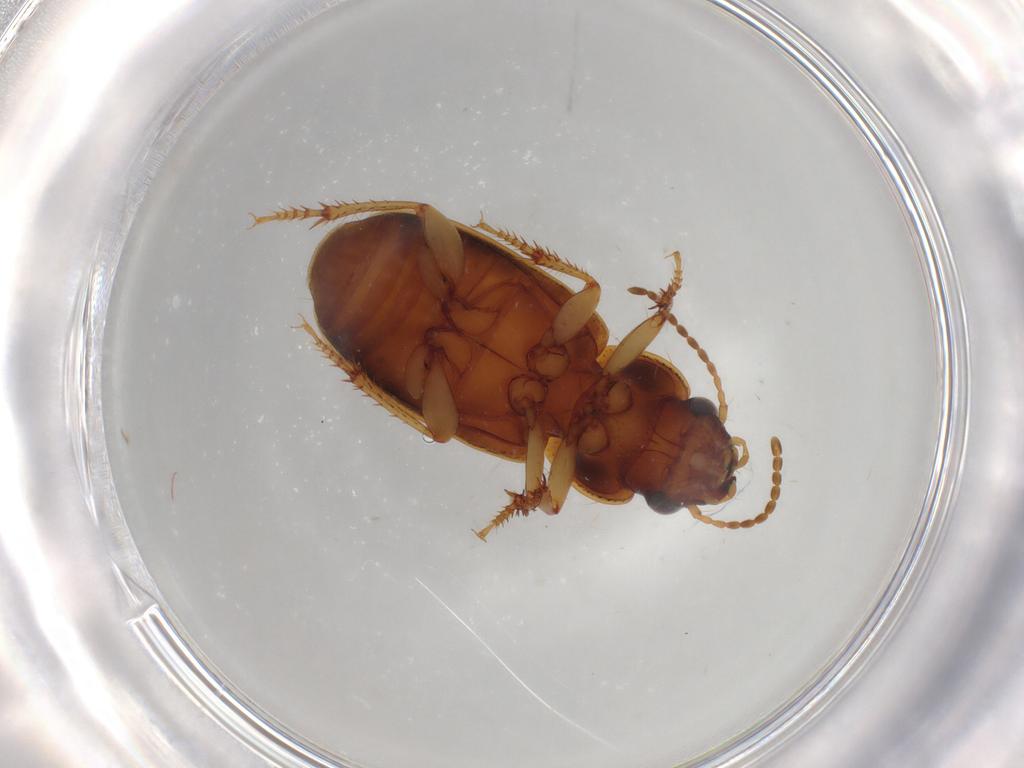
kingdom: Animalia
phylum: Arthropoda
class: Insecta
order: Coleoptera
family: Carabidae
